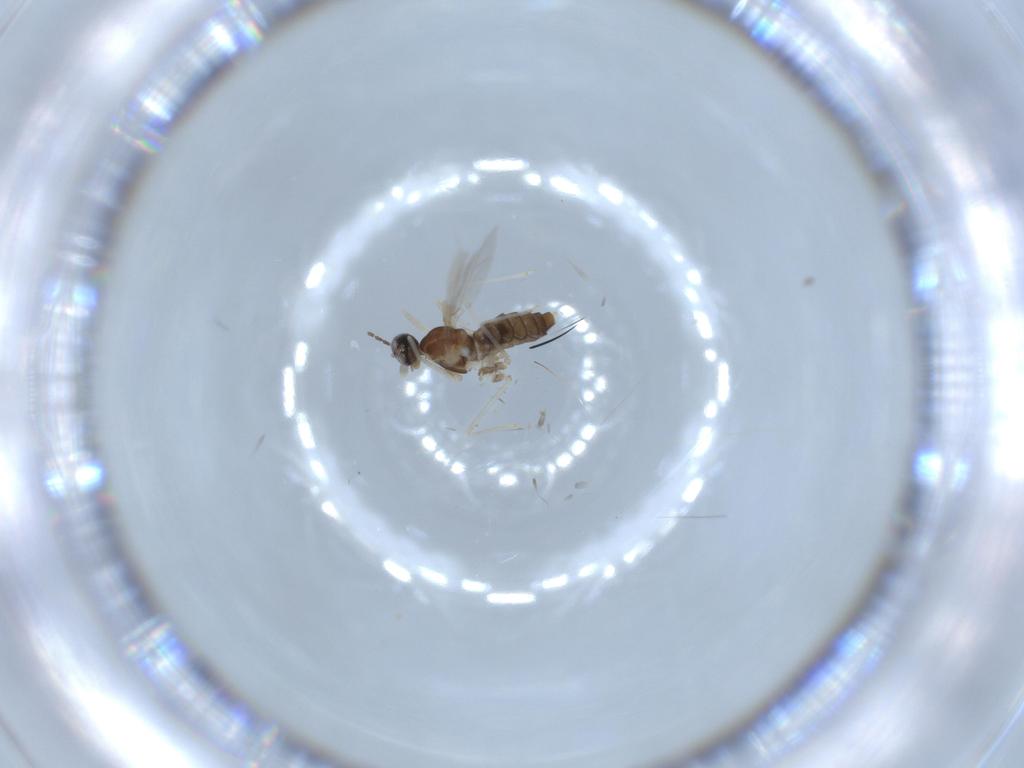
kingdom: Animalia
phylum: Arthropoda
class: Insecta
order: Diptera
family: Cecidomyiidae
